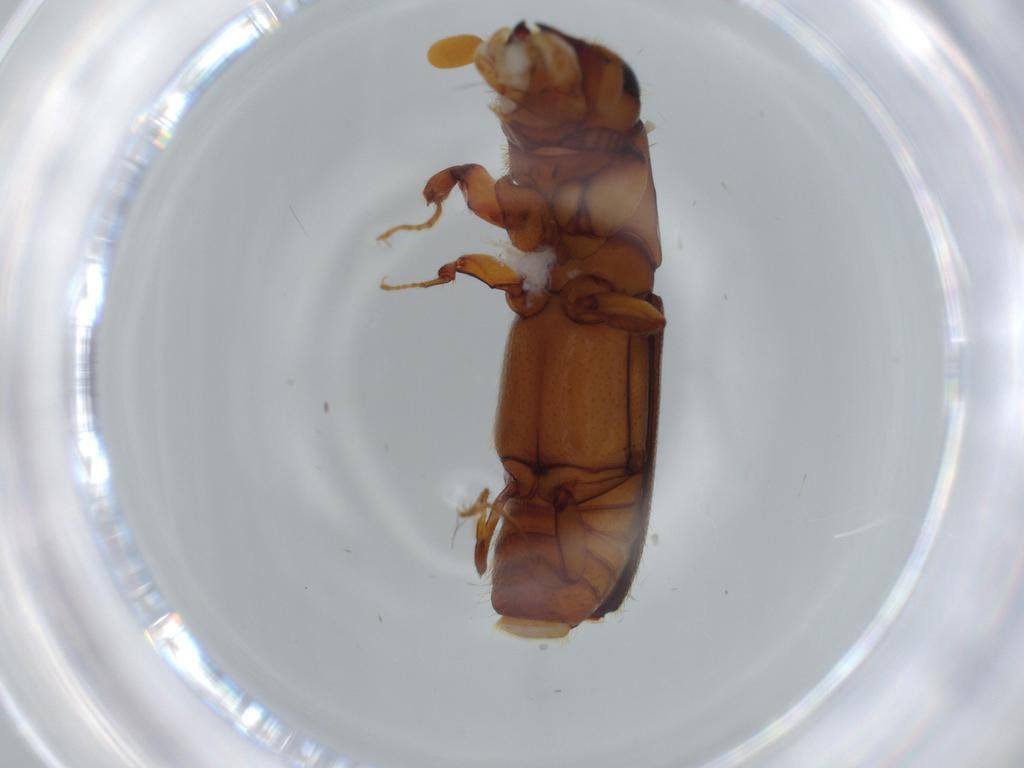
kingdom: Animalia
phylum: Arthropoda
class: Insecta
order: Coleoptera
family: Curculionidae
